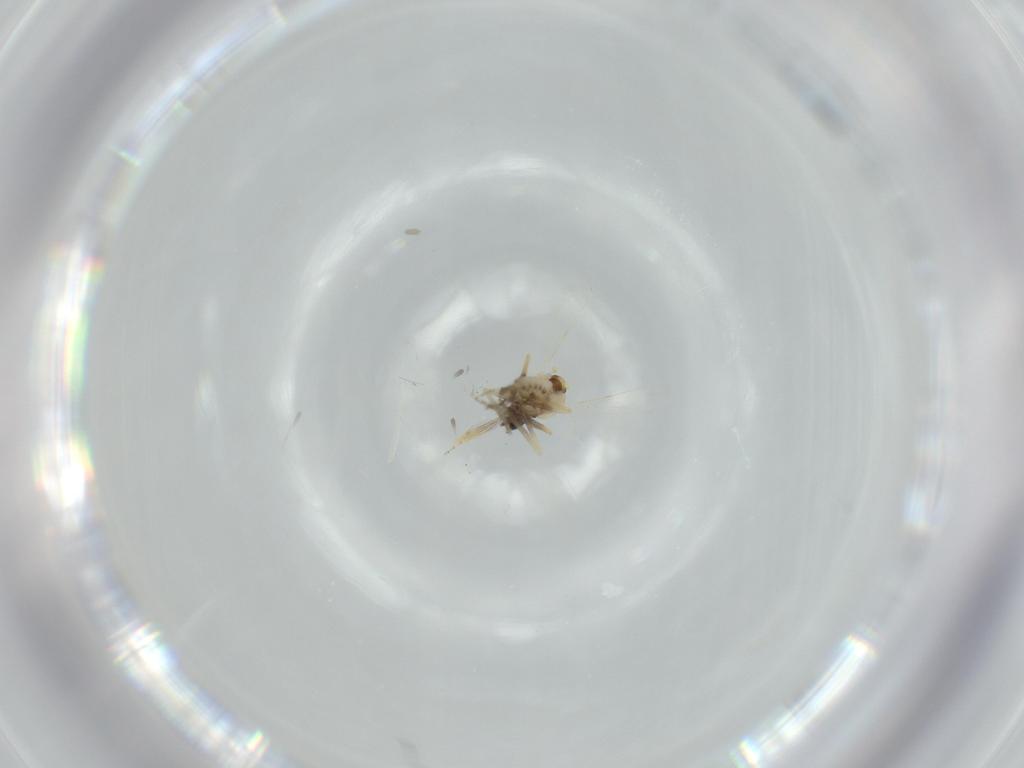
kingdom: Animalia
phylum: Arthropoda
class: Insecta
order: Diptera
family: Ceratopogonidae
